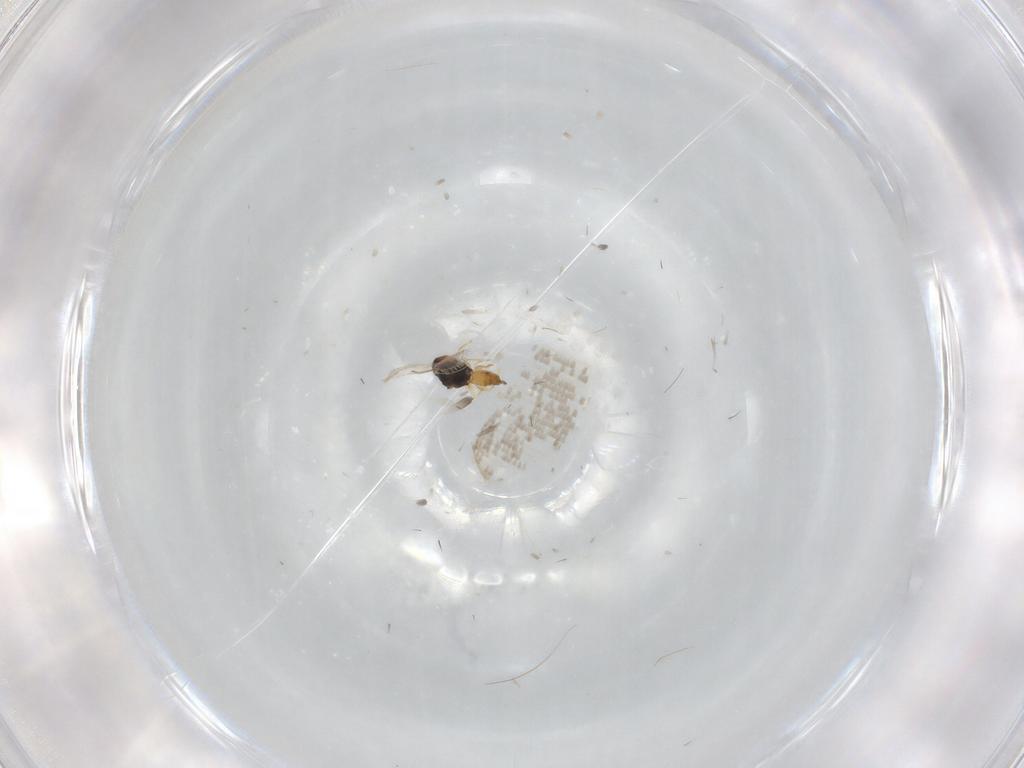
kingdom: Animalia
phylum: Arthropoda
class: Insecta
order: Hymenoptera
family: Eulophidae
